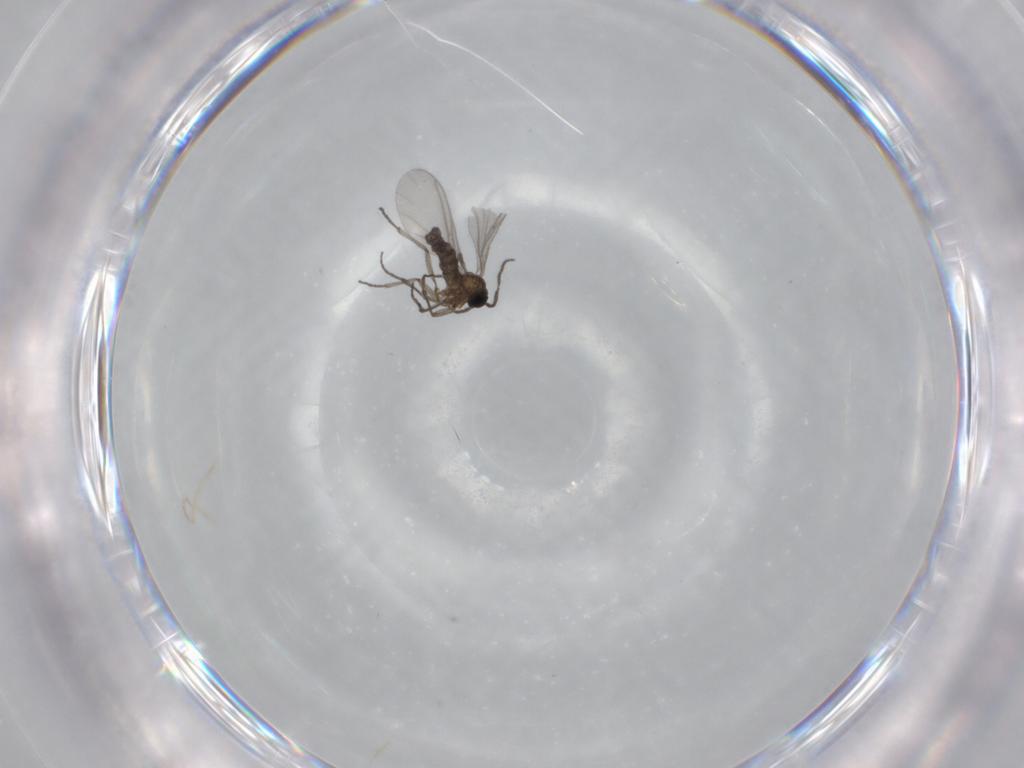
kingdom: Animalia
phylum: Arthropoda
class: Insecta
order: Diptera
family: Sciaridae
